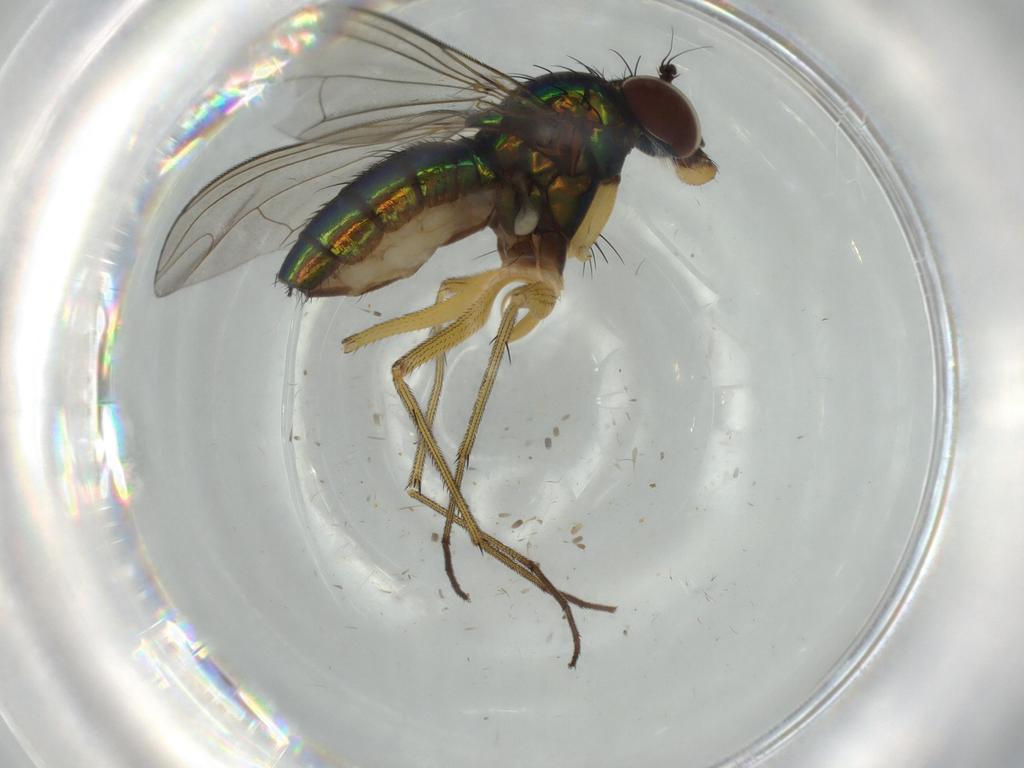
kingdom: Animalia
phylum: Arthropoda
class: Insecta
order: Diptera
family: Dolichopodidae
